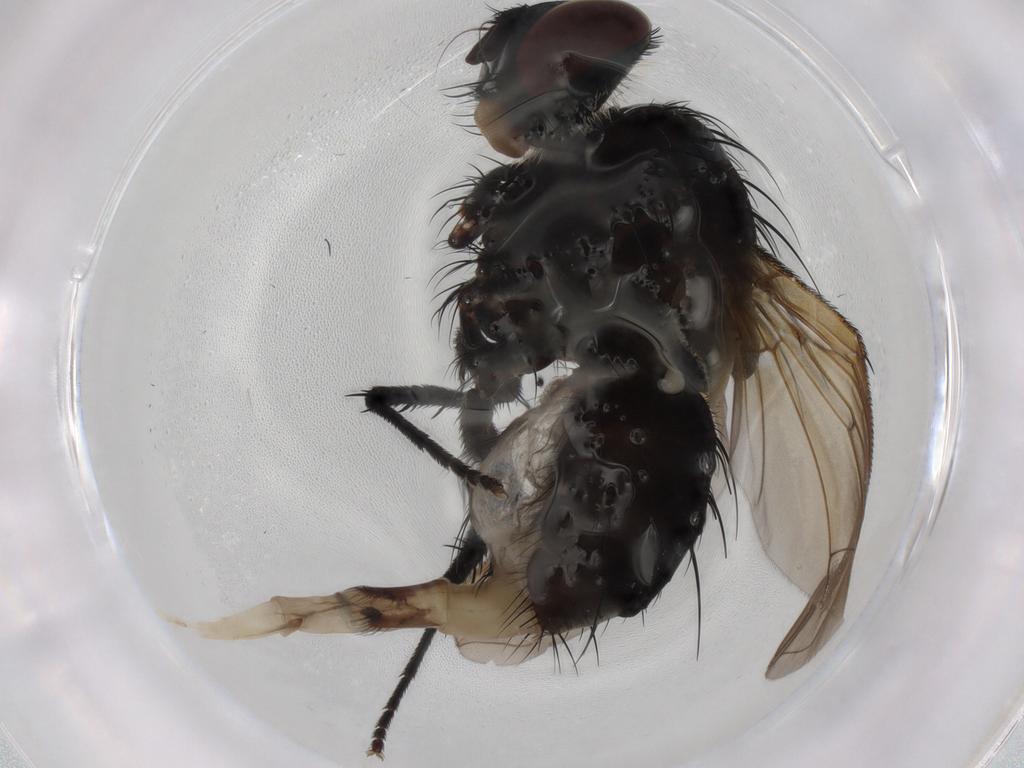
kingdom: Animalia
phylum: Arthropoda
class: Insecta
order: Diptera
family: Tachinidae
